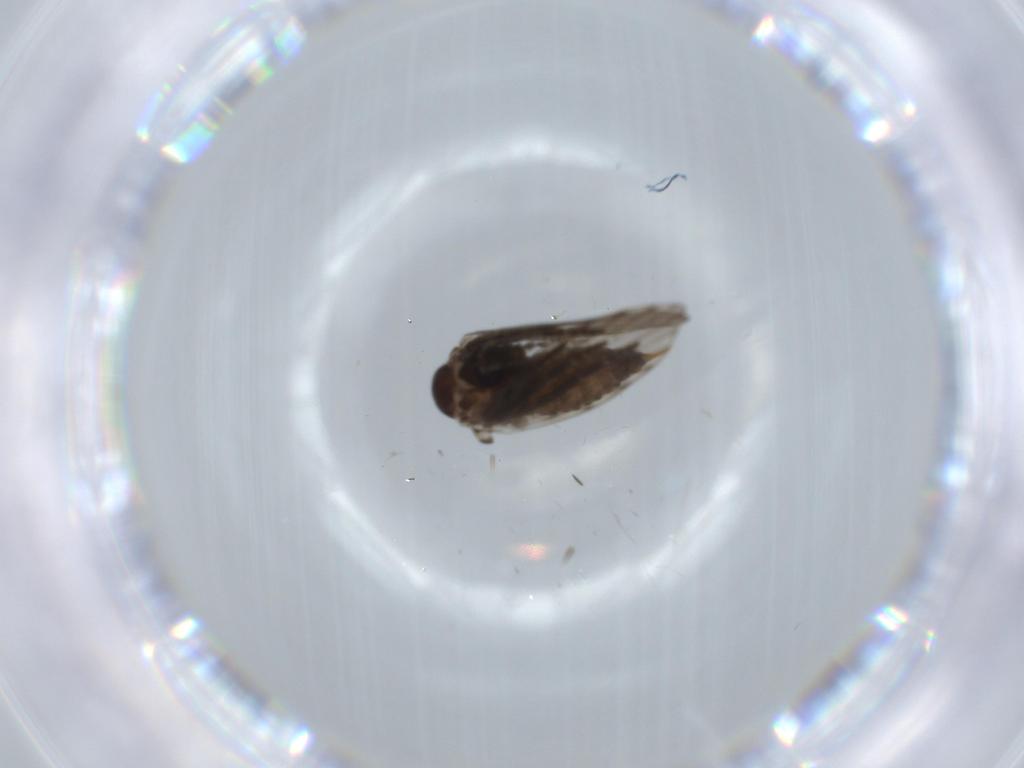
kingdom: Animalia
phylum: Arthropoda
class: Insecta
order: Diptera
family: Psychodidae
